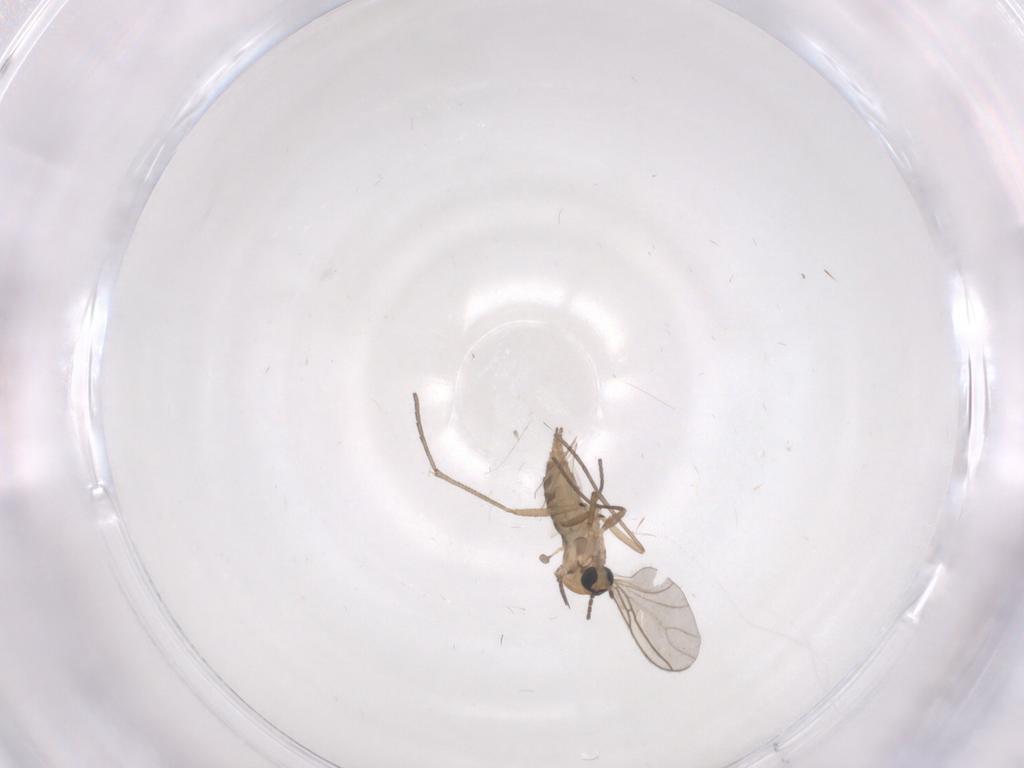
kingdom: Animalia
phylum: Arthropoda
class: Insecta
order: Diptera
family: Sciaridae
